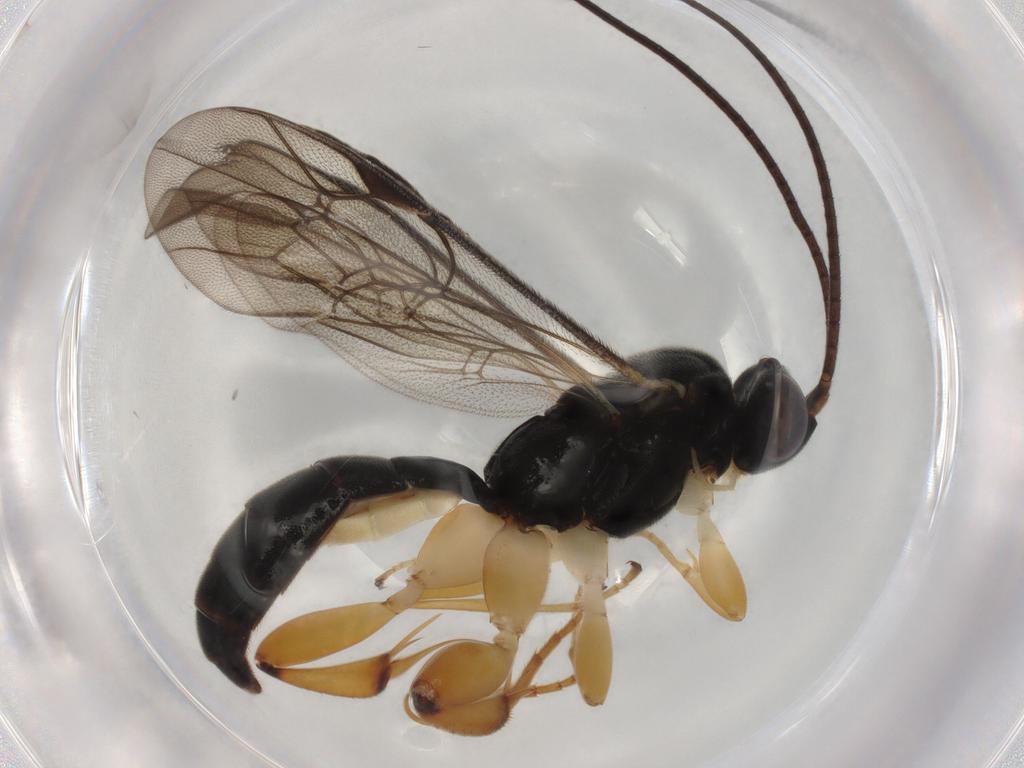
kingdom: Animalia
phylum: Arthropoda
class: Insecta
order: Hymenoptera
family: Ichneumonidae
